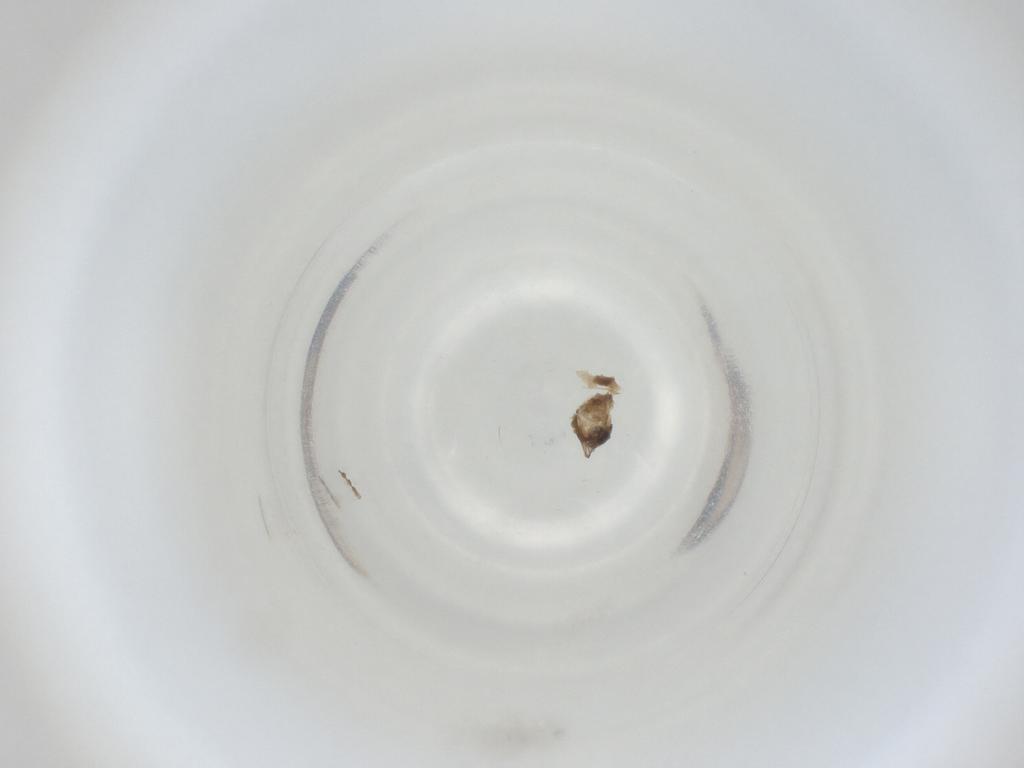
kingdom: Animalia
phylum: Arthropoda
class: Insecta
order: Diptera
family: Cecidomyiidae
